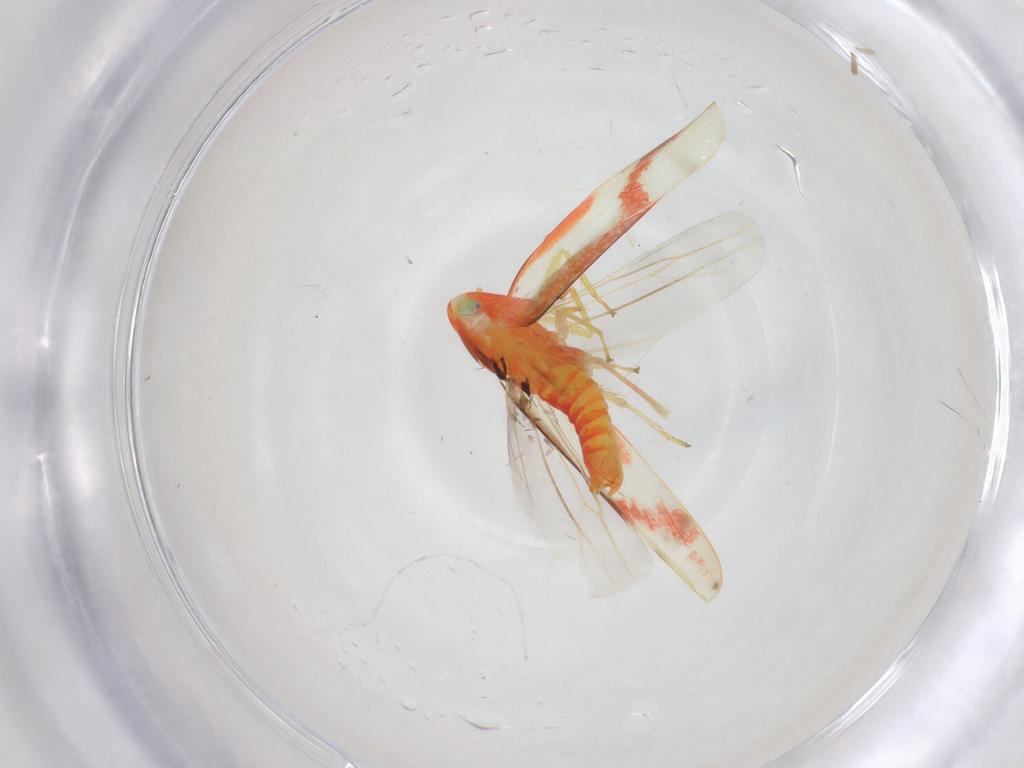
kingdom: Animalia
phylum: Arthropoda
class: Insecta
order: Hemiptera
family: Cicadellidae
